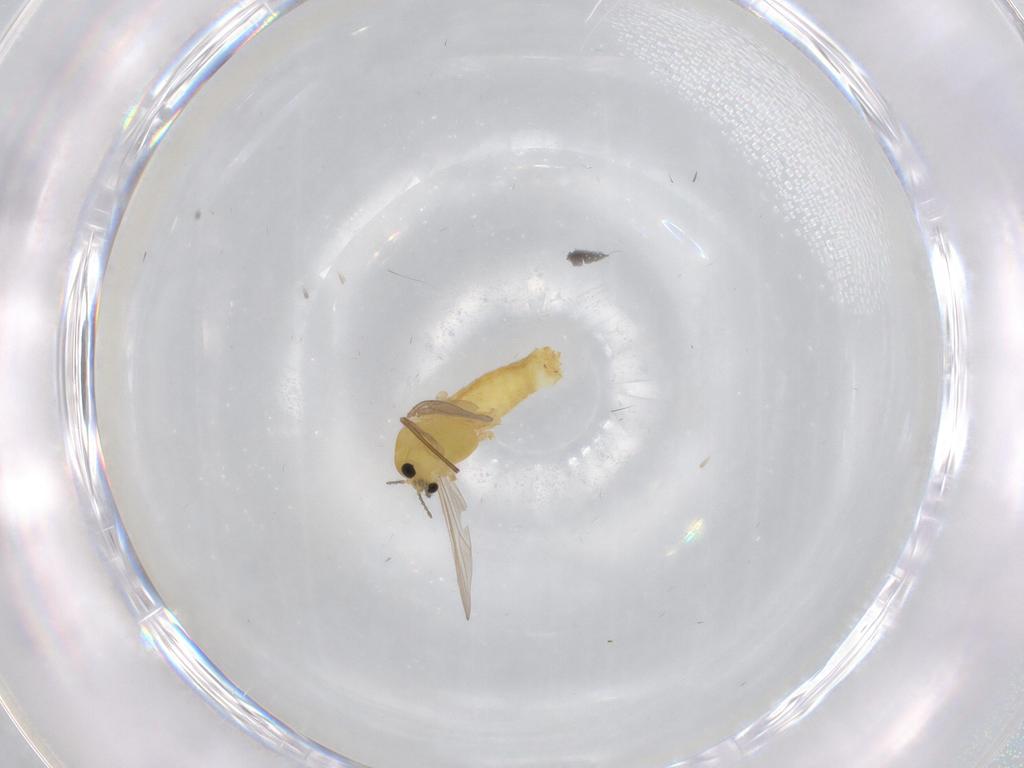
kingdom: Animalia
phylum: Arthropoda
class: Insecta
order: Diptera
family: Chironomidae
